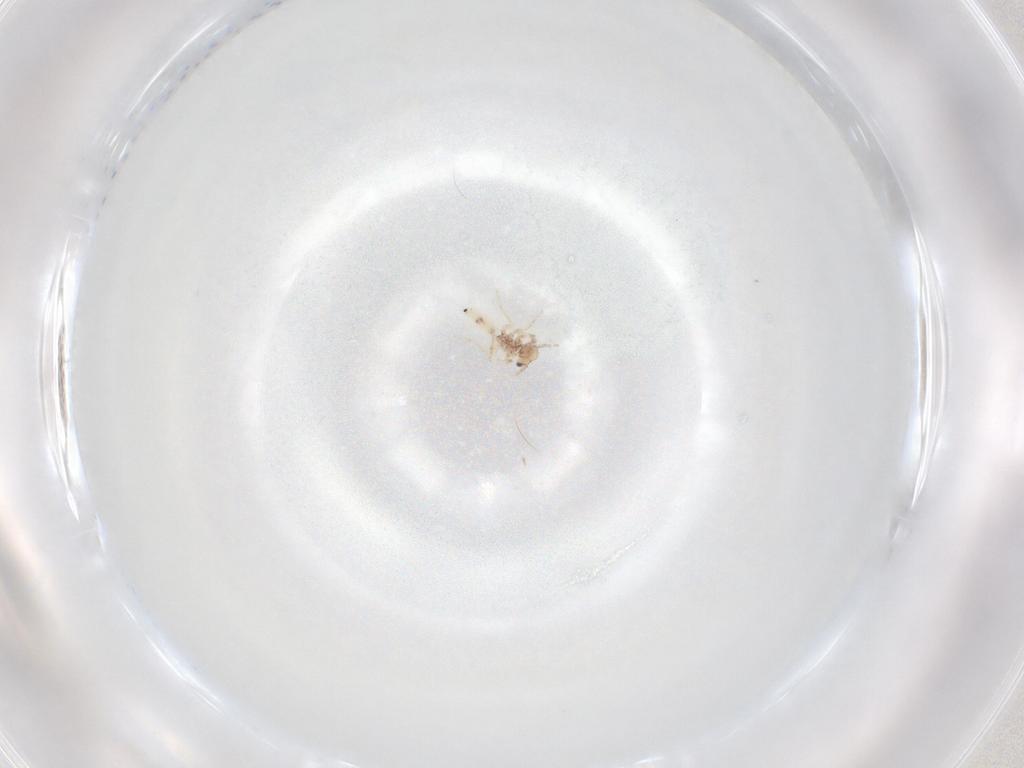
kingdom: Animalia
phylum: Arthropoda
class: Insecta
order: Psocodea
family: Lepidopsocidae
